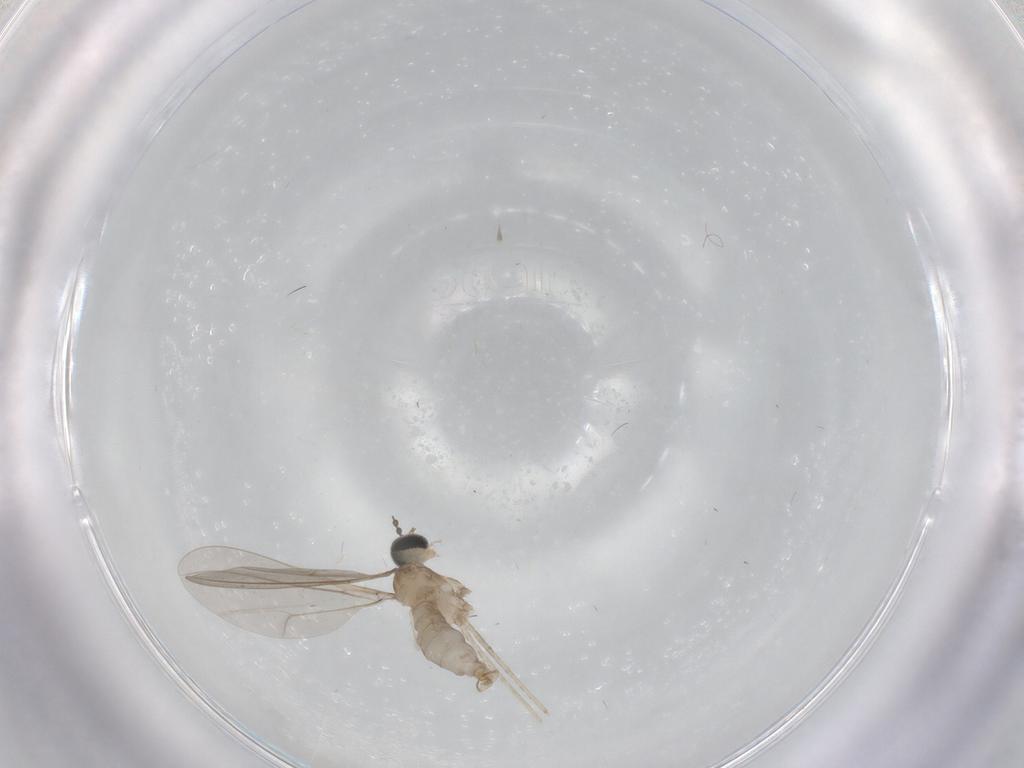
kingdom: Animalia
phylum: Arthropoda
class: Insecta
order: Diptera
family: Cecidomyiidae
